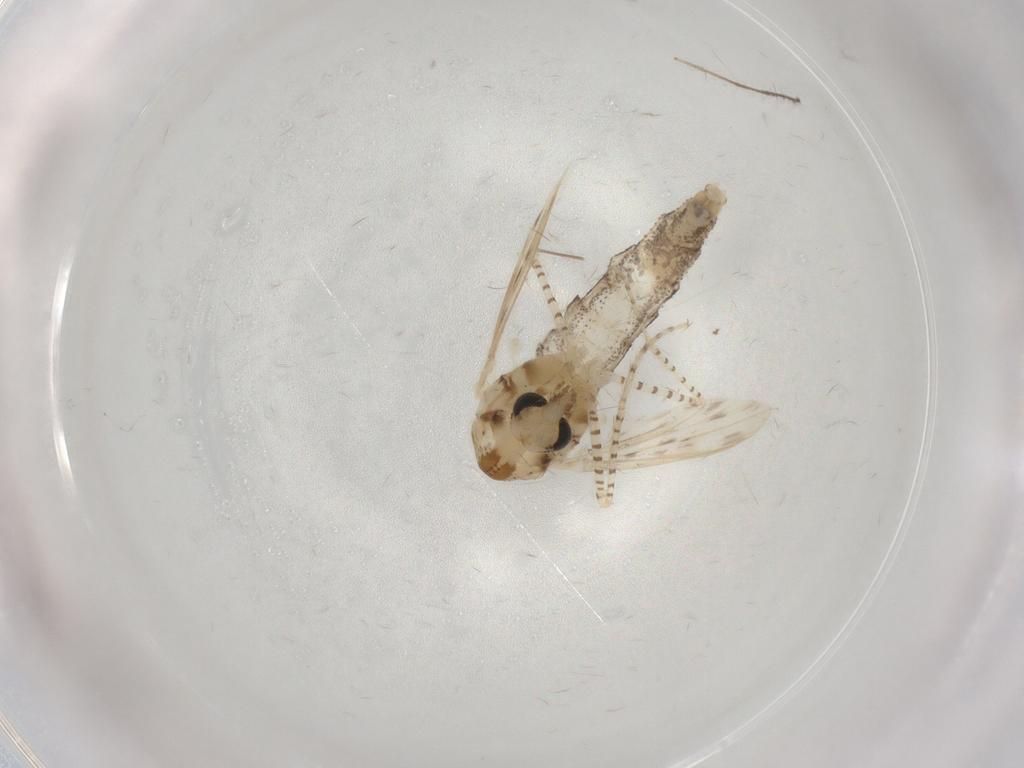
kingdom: Animalia
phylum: Arthropoda
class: Insecta
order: Diptera
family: Chaoboridae
